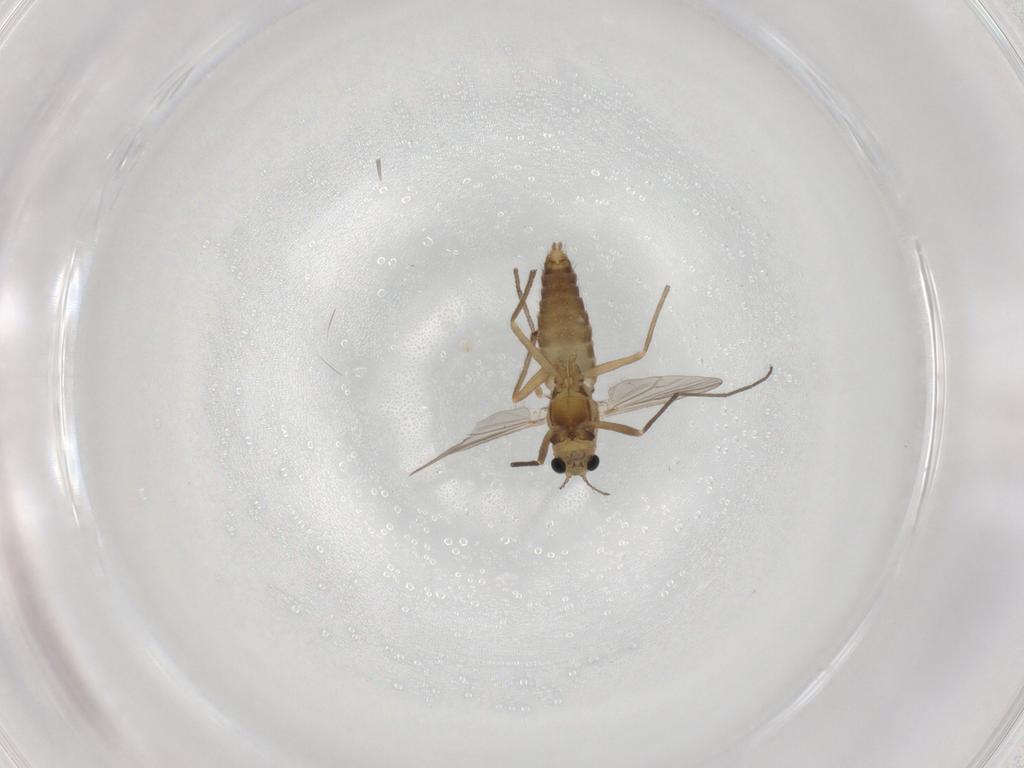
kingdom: Animalia
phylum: Arthropoda
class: Insecta
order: Diptera
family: Chironomidae
